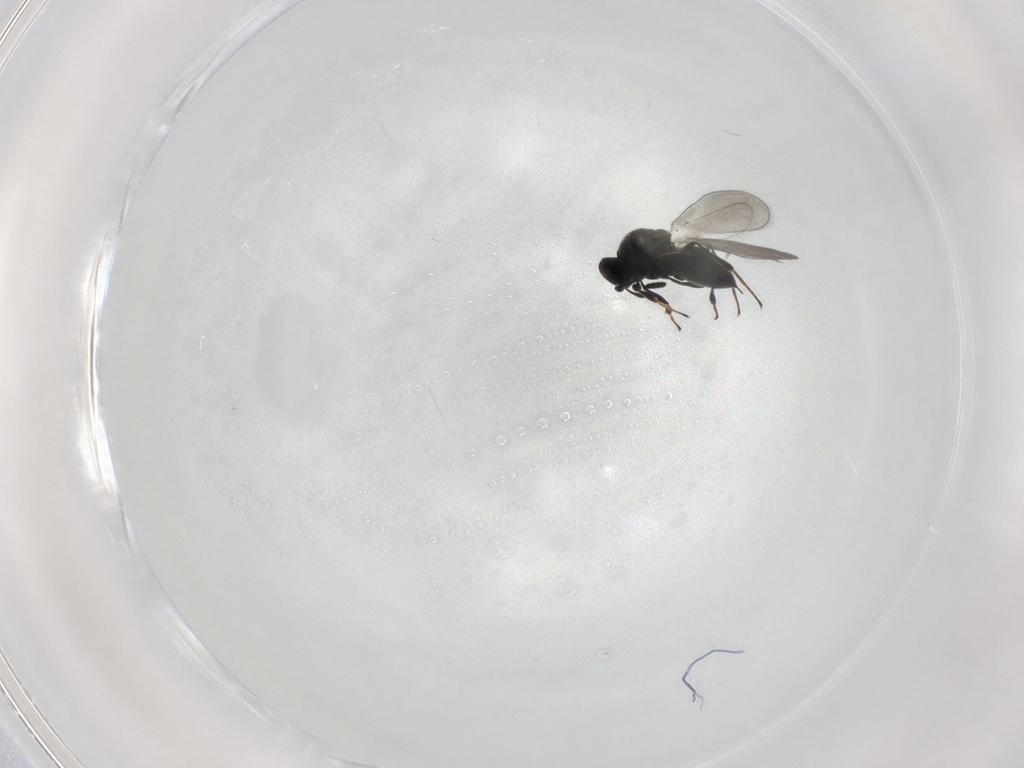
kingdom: Animalia
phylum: Arthropoda
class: Insecta
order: Hymenoptera
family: Platygastridae
